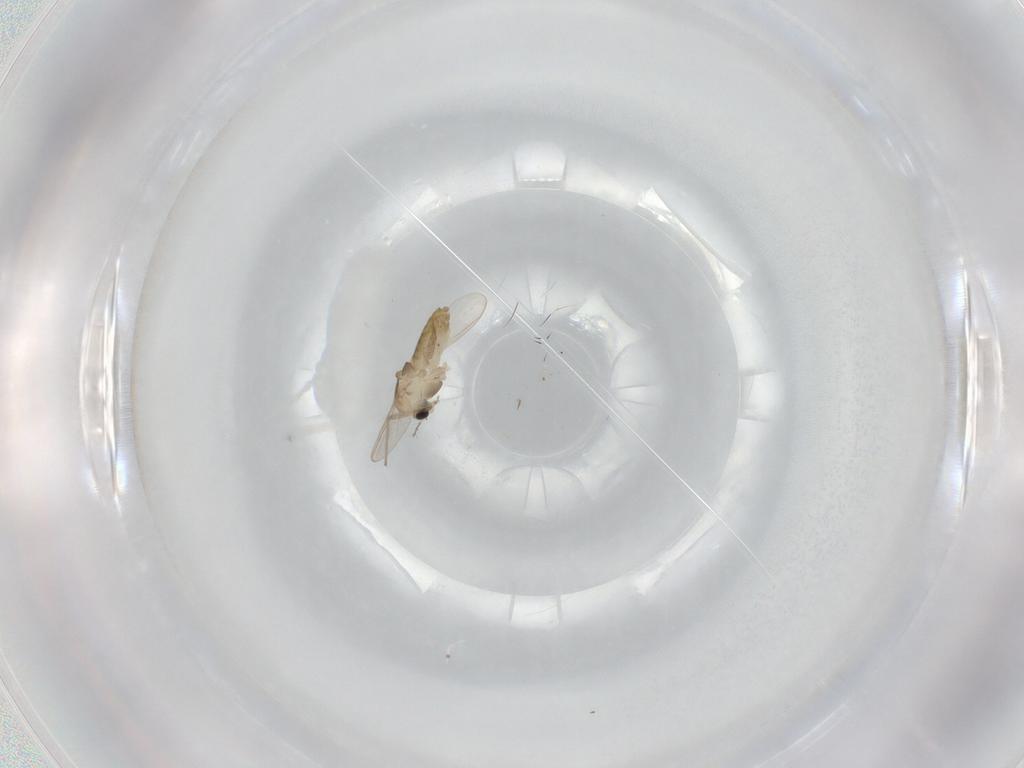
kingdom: Animalia
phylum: Arthropoda
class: Insecta
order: Diptera
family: Chironomidae
